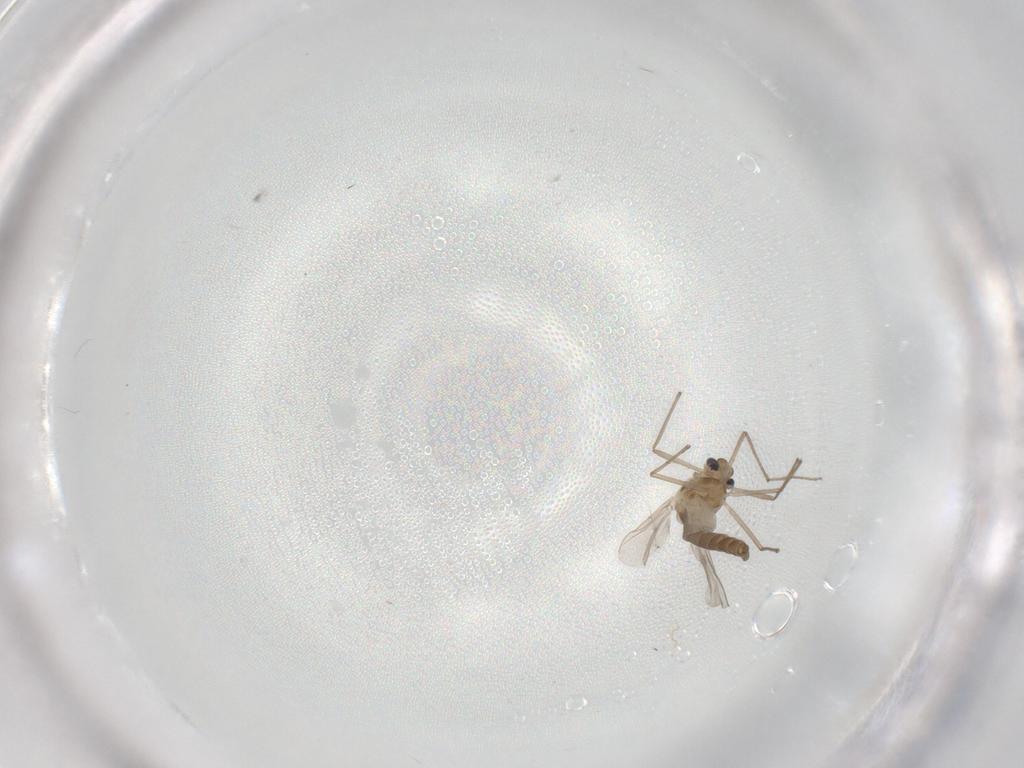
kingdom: Animalia
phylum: Arthropoda
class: Insecta
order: Diptera
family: Chironomidae
